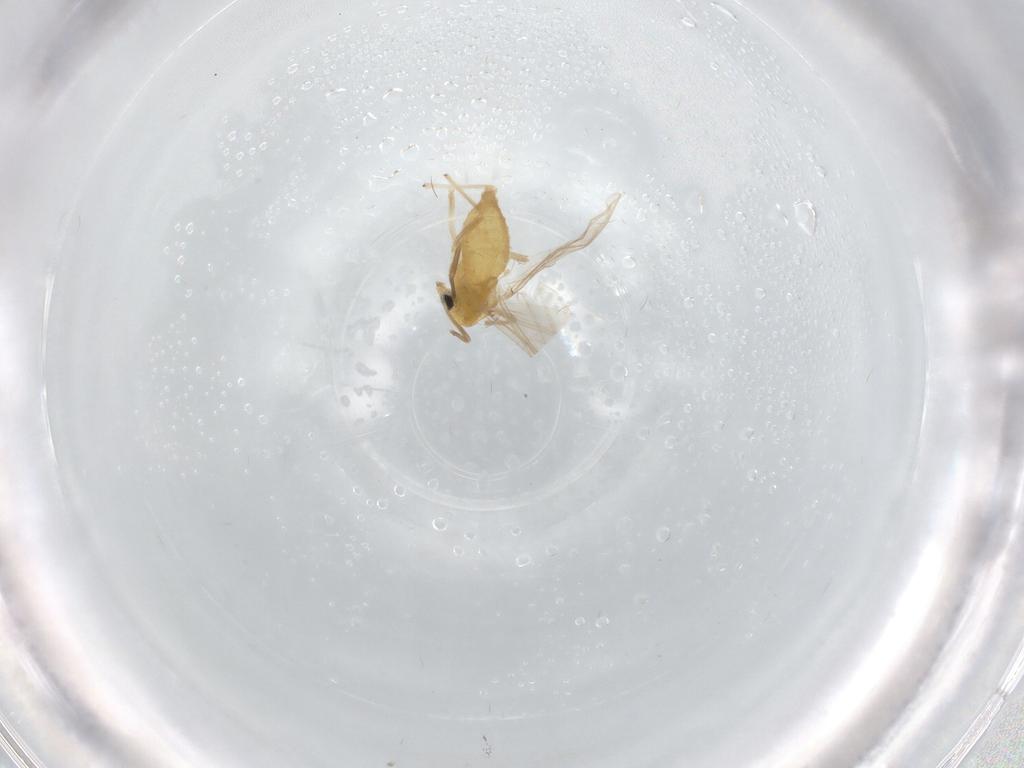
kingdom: Animalia
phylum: Arthropoda
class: Insecta
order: Diptera
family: Chironomidae
